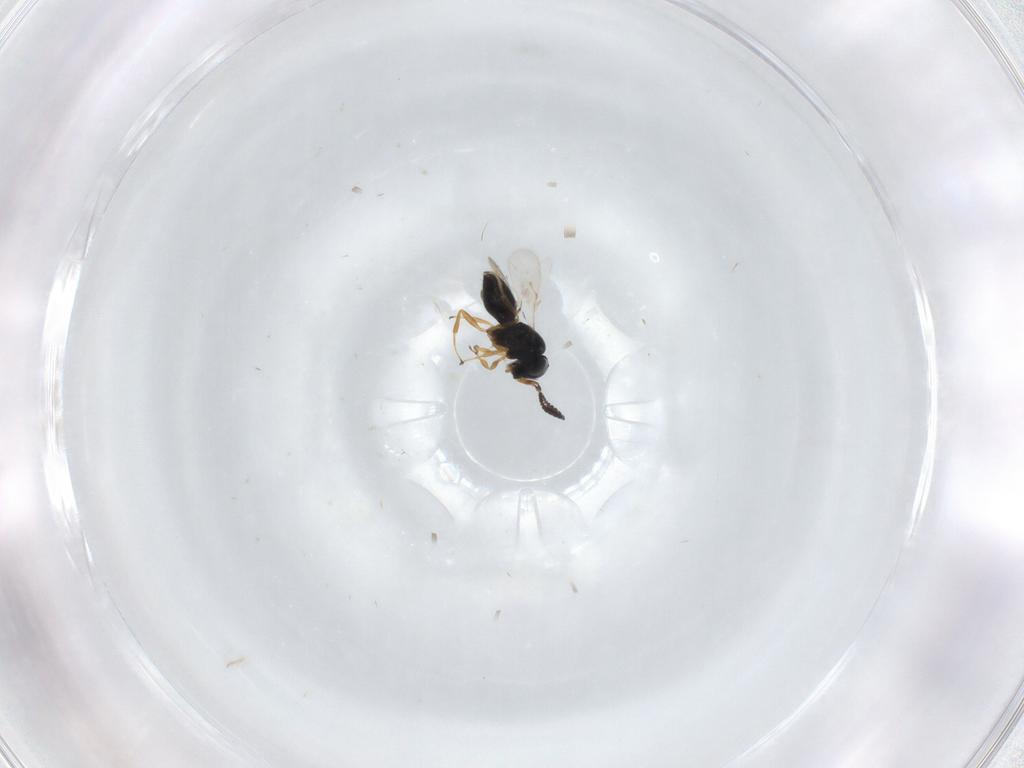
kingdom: Animalia
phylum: Arthropoda
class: Insecta
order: Hymenoptera
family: Scelionidae
